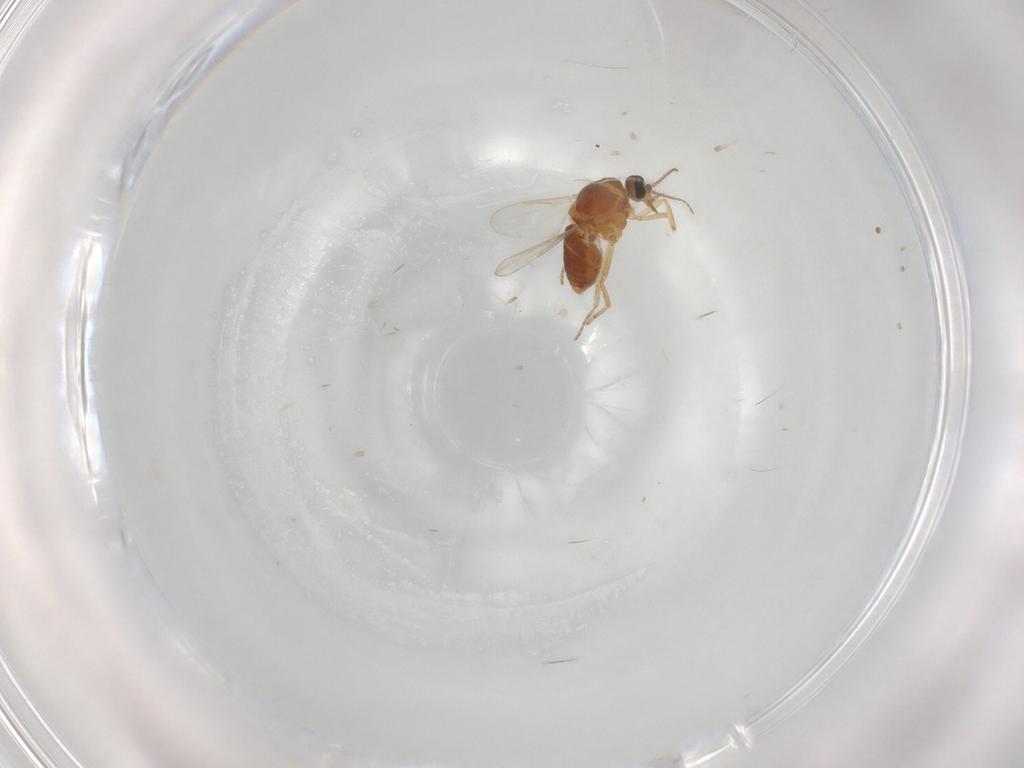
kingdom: Animalia
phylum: Arthropoda
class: Insecta
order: Diptera
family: Ceratopogonidae
